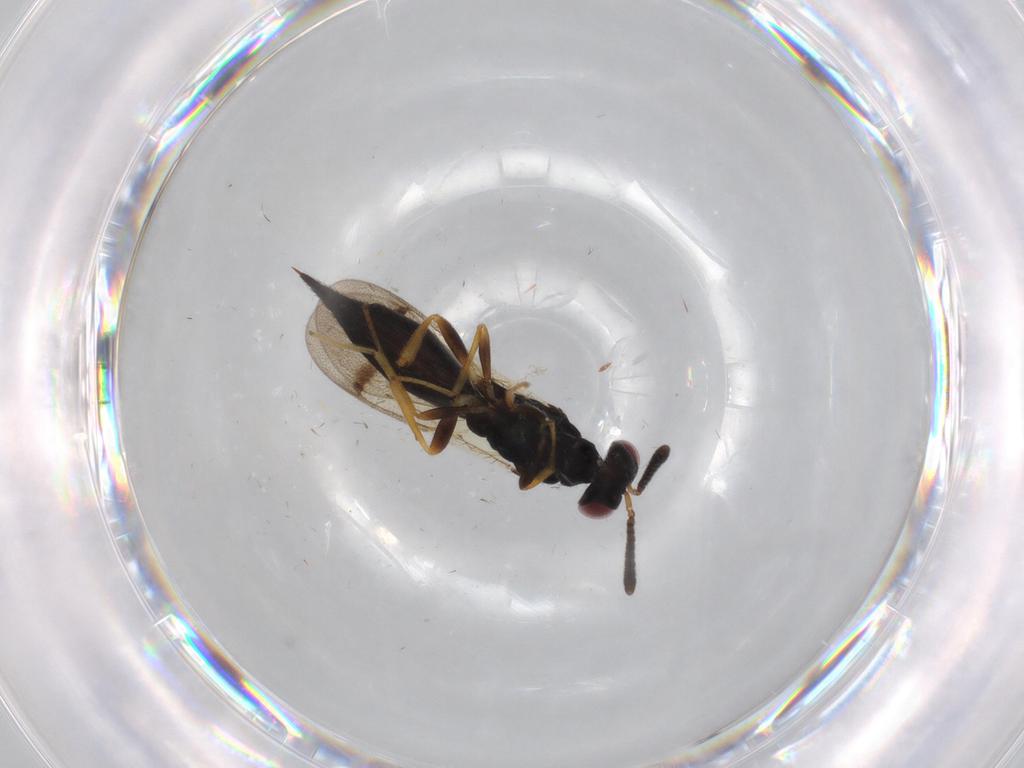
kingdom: Animalia
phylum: Arthropoda
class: Insecta
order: Hymenoptera
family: Pteromalidae
